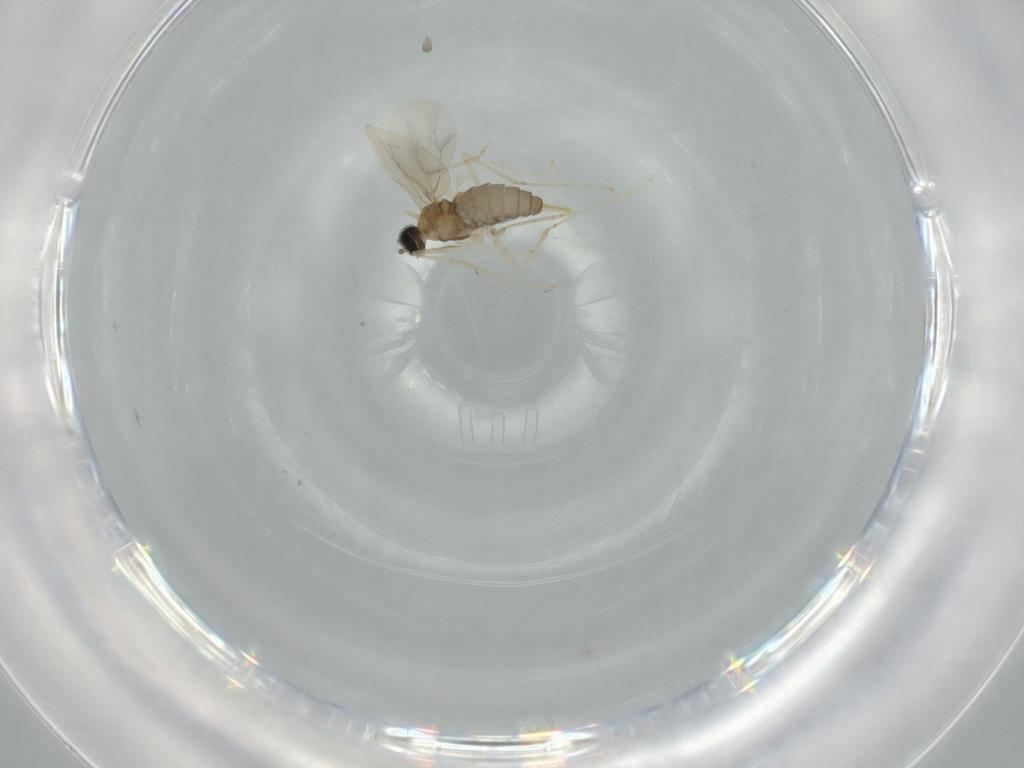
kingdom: Animalia
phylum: Arthropoda
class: Insecta
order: Diptera
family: Cecidomyiidae
